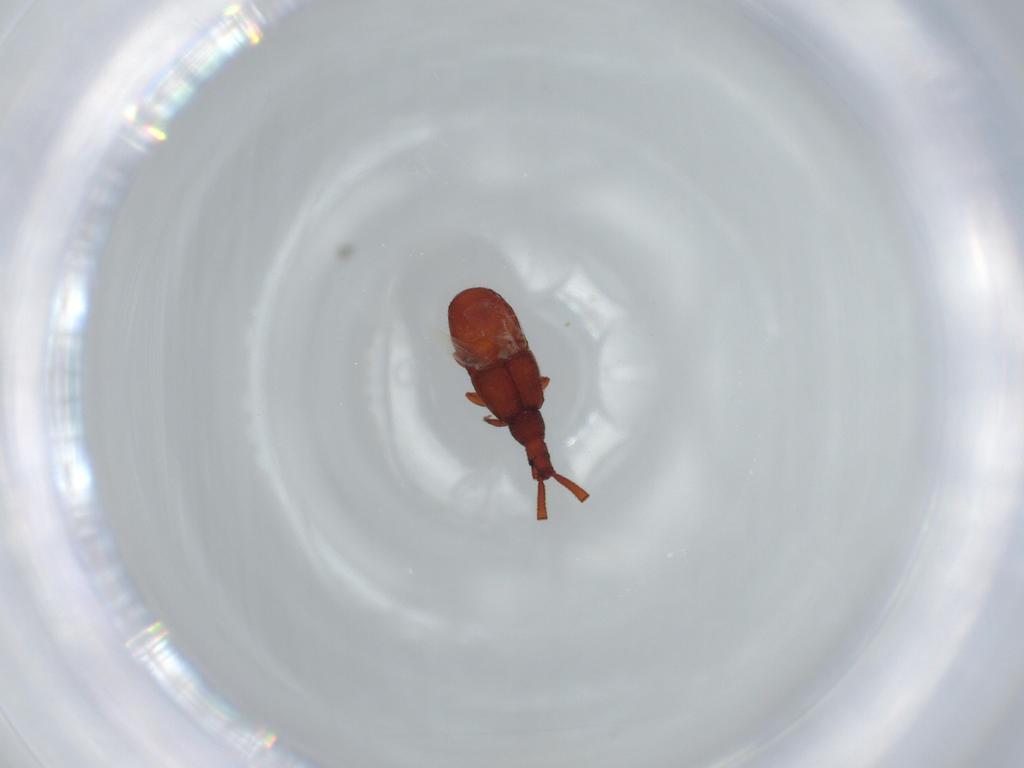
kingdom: Animalia
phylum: Arthropoda
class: Insecta
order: Coleoptera
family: Staphylinidae
